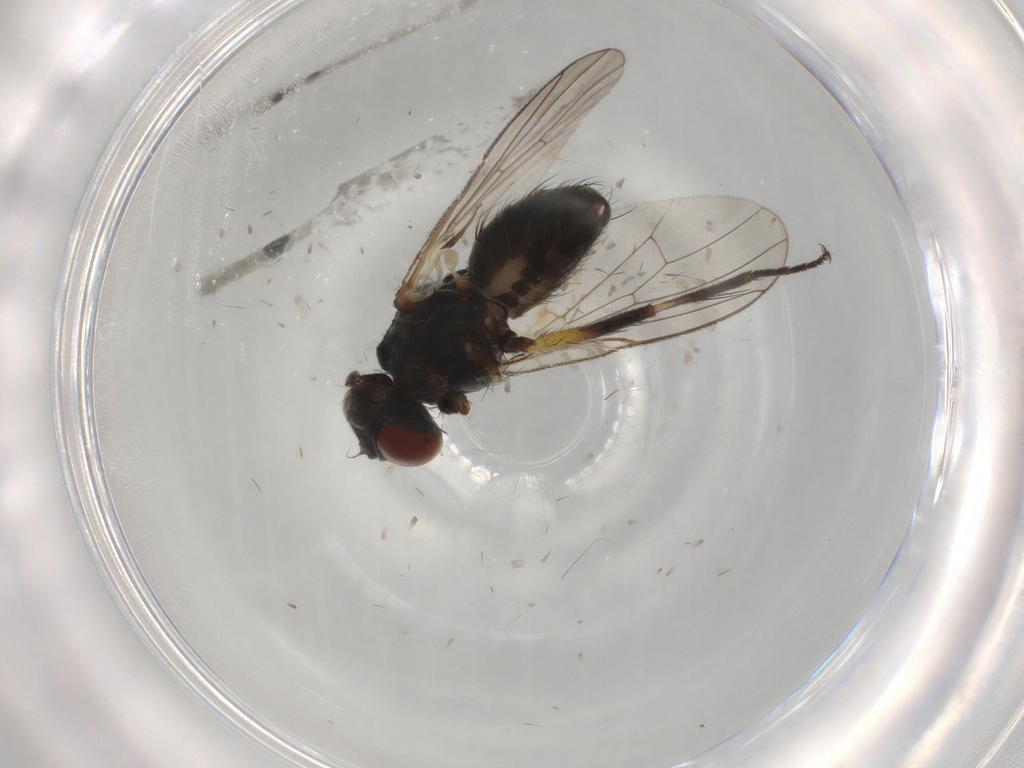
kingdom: Animalia
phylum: Arthropoda
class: Insecta
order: Diptera
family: Chironomidae
